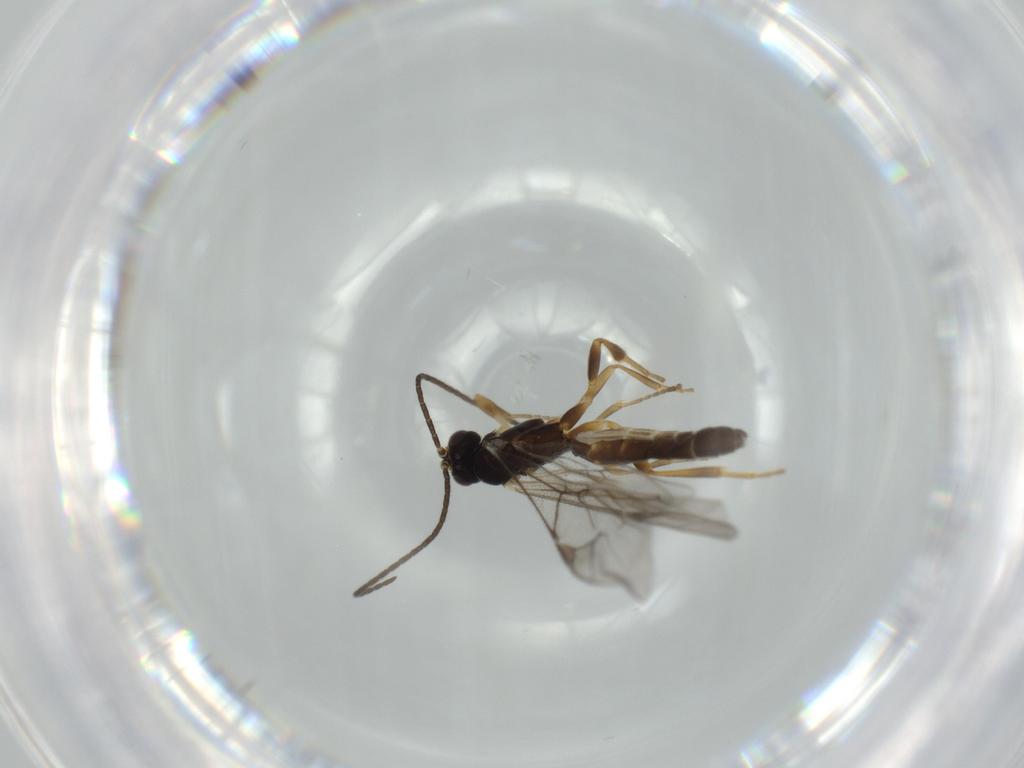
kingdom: Animalia
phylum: Arthropoda
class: Insecta
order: Hymenoptera
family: Ichneumonidae
